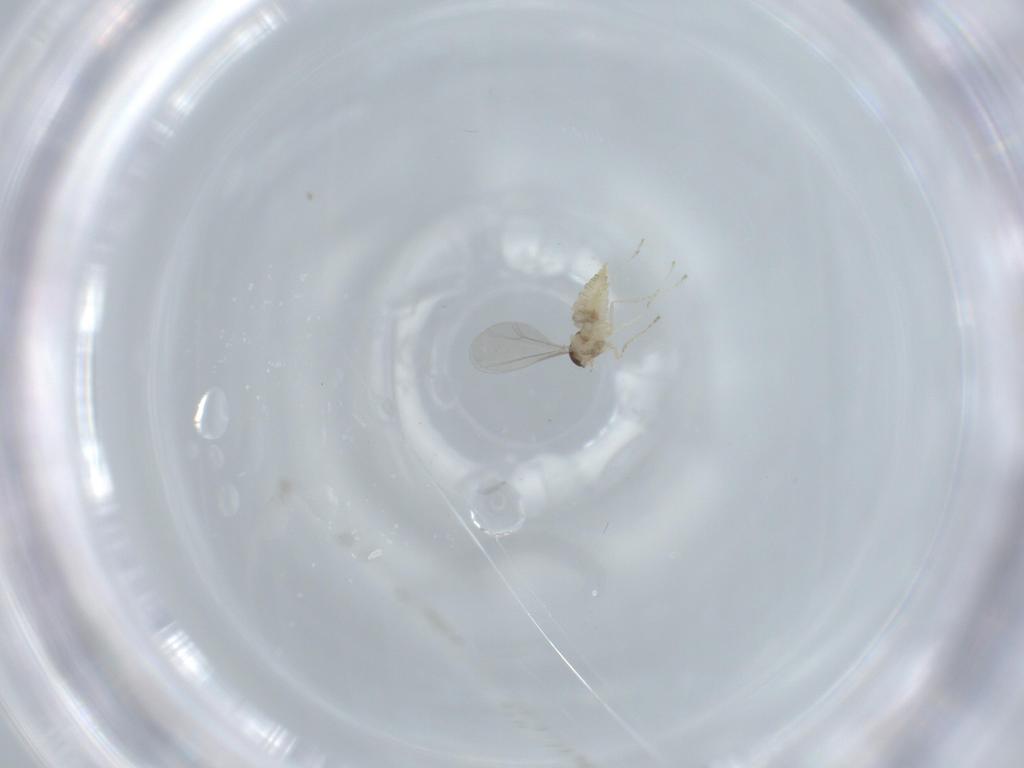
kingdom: Animalia
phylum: Arthropoda
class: Insecta
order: Diptera
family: Cecidomyiidae
